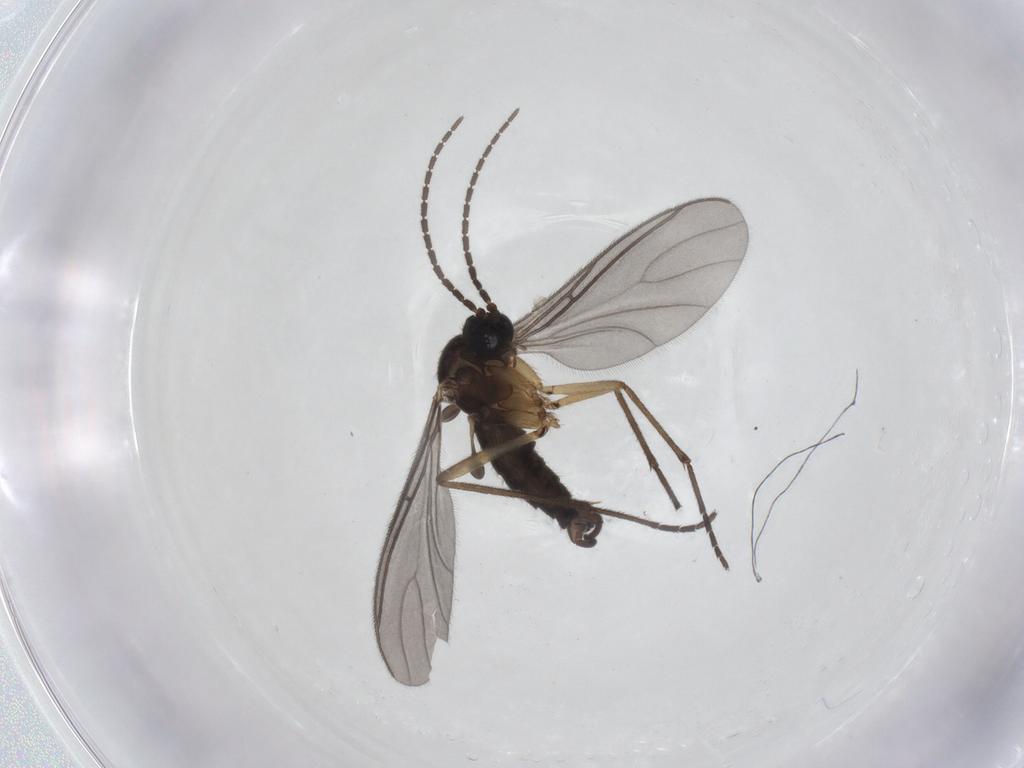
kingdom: Animalia
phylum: Arthropoda
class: Insecta
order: Diptera
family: Sciaridae
